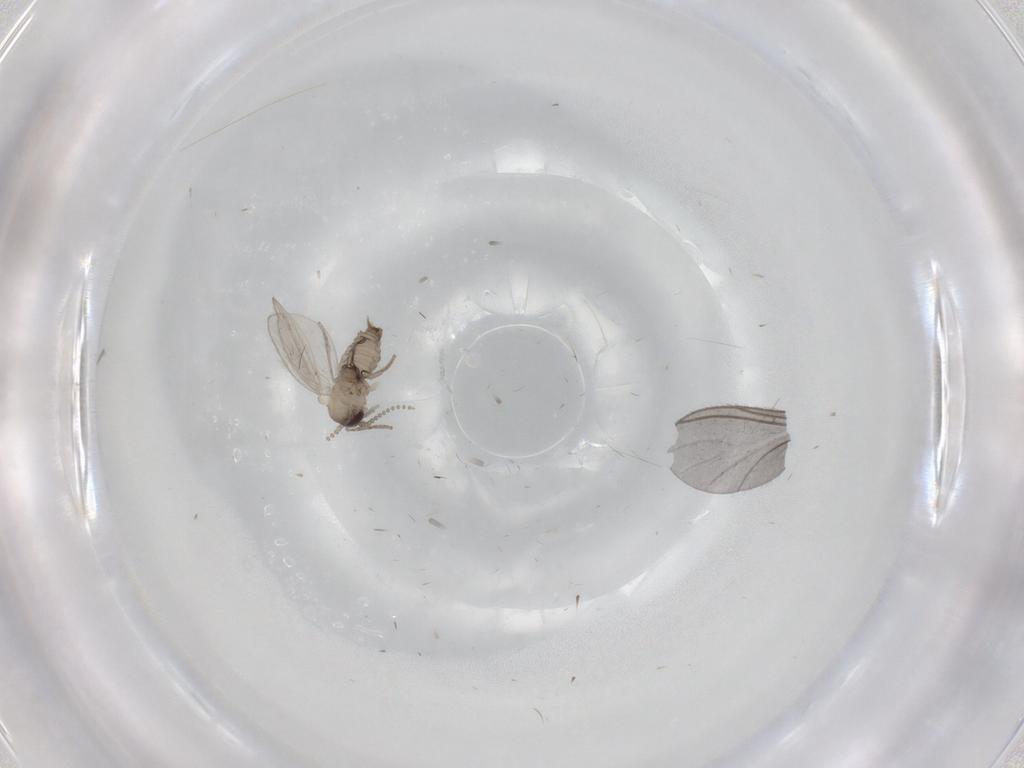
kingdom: Animalia
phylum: Arthropoda
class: Insecta
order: Diptera
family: Psychodidae
